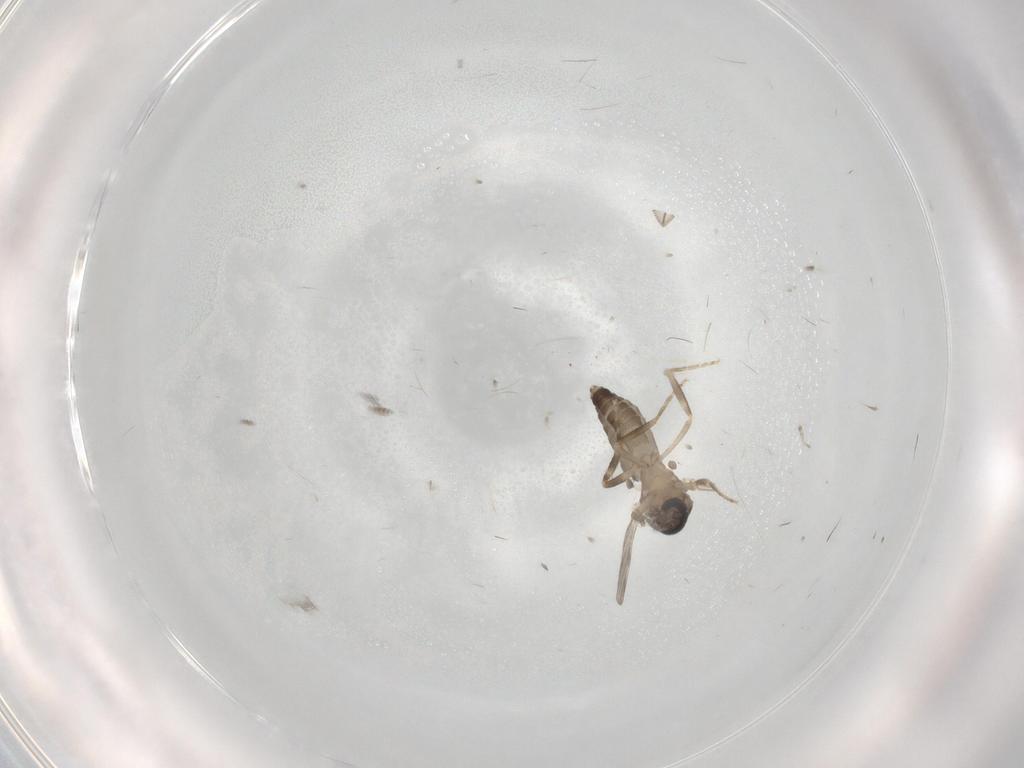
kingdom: Animalia
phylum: Arthropoda
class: Insecta
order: Diptera
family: Ceratopogonidae
